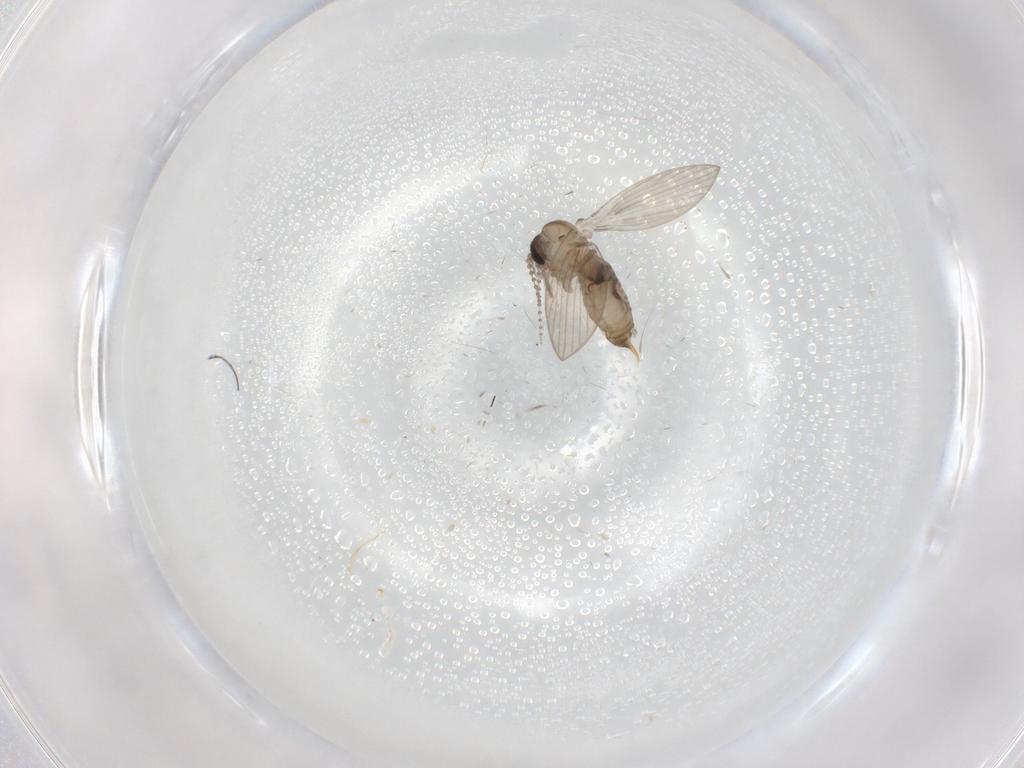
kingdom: Animalia
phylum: Arthropoda
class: Insecta
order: Diptera
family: Psychodidae
